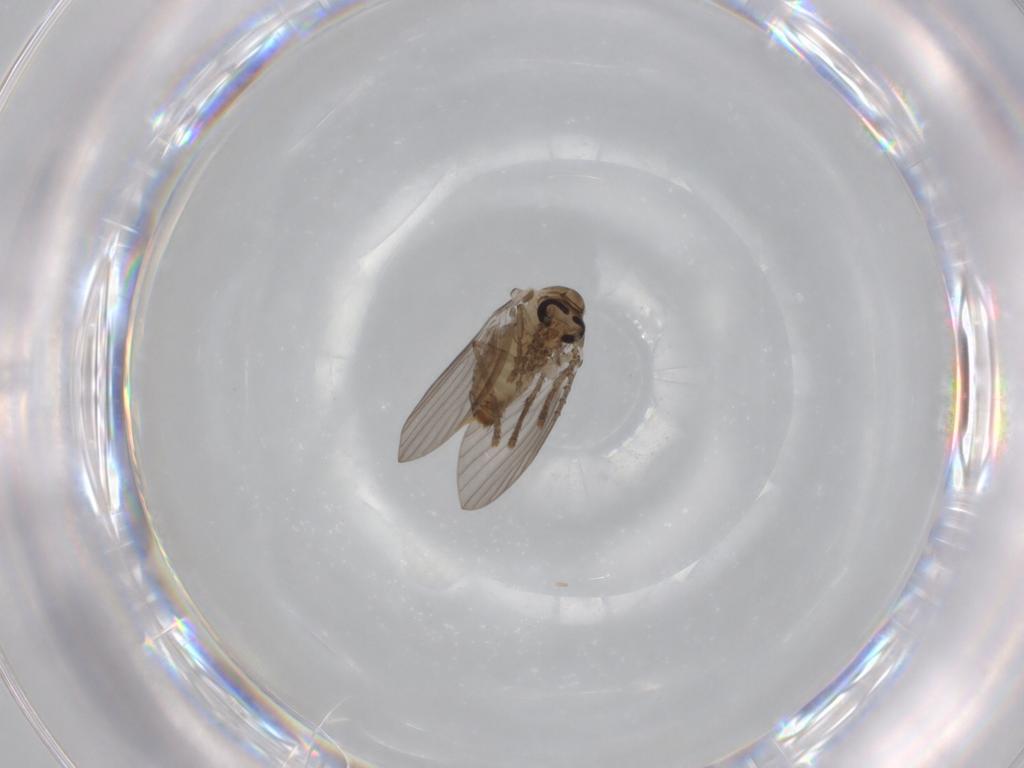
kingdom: Animalia
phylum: Arthropoda
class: Insecta
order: Diptera
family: Psychodidae
